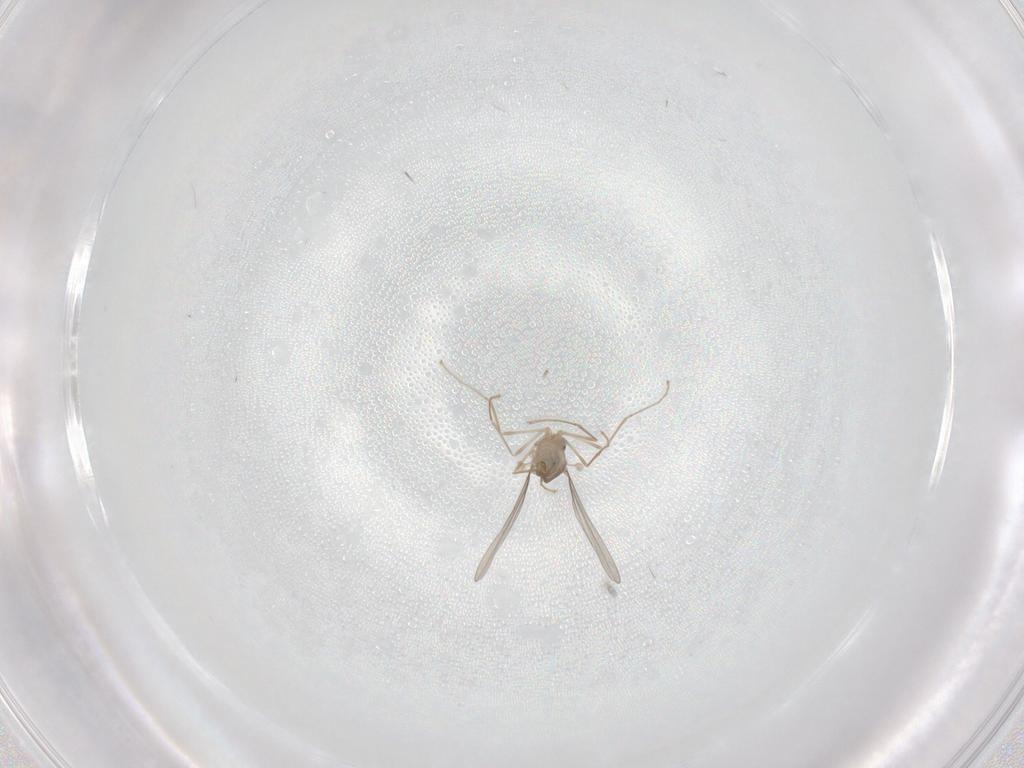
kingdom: Animalia
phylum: Arthropoda
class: Insecta
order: Diptera
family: Cecidomyiidae
